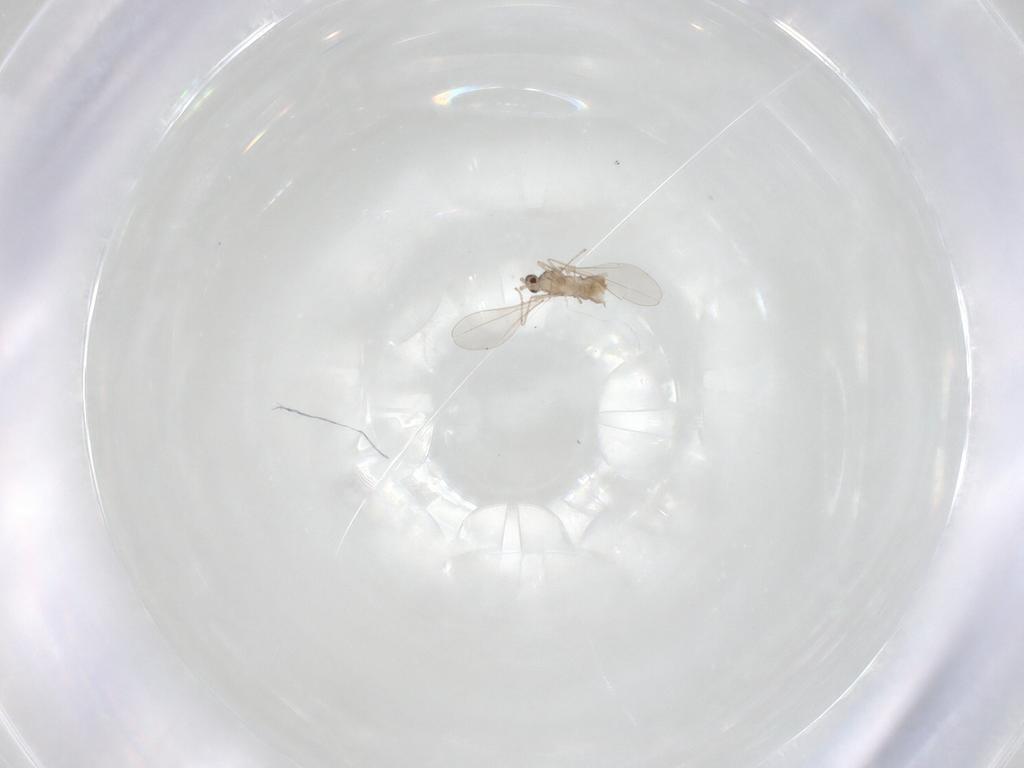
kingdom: Animalia
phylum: Arthropoda
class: Insecta
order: Diptera
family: Cecidomyiidae
